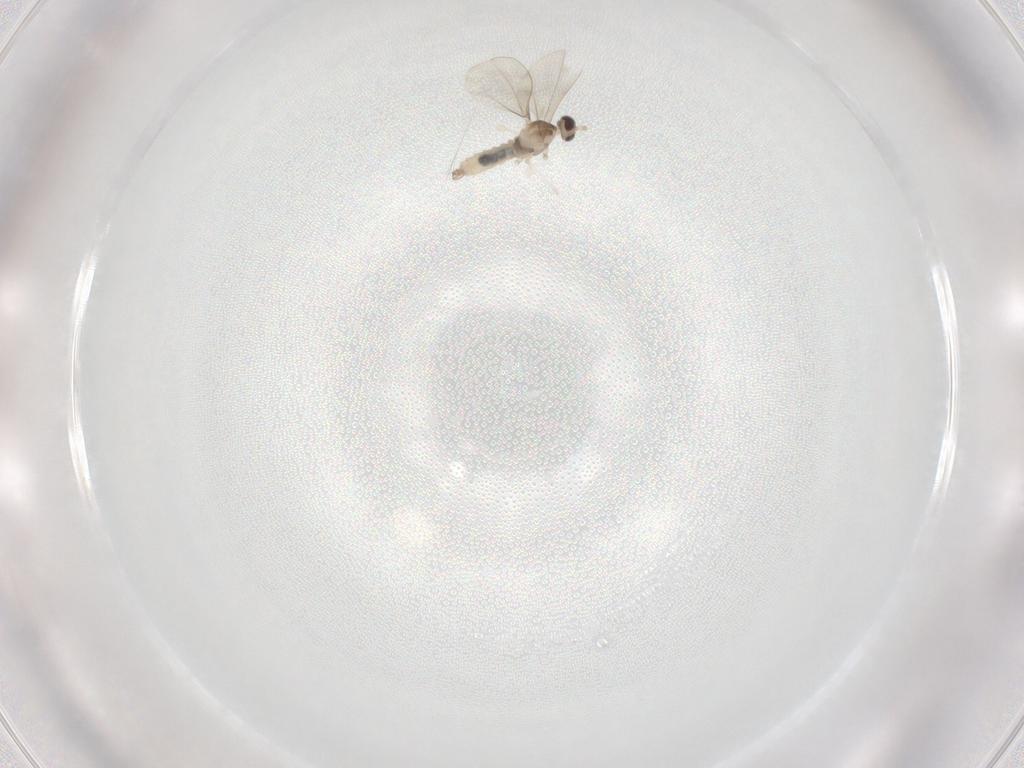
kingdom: Animalia
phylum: Arthropoda
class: Insecta
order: Diptera
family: Cecidomyiidae
